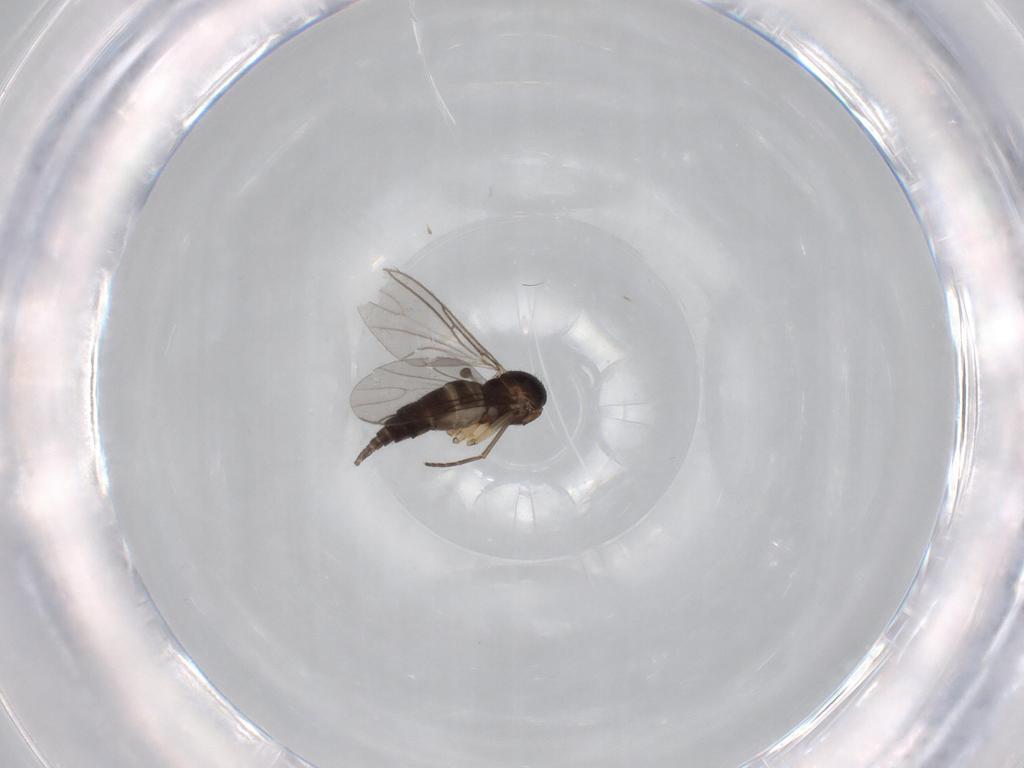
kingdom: Animalia
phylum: Arthropoda
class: Insecta
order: Diptera
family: Sciaridae
